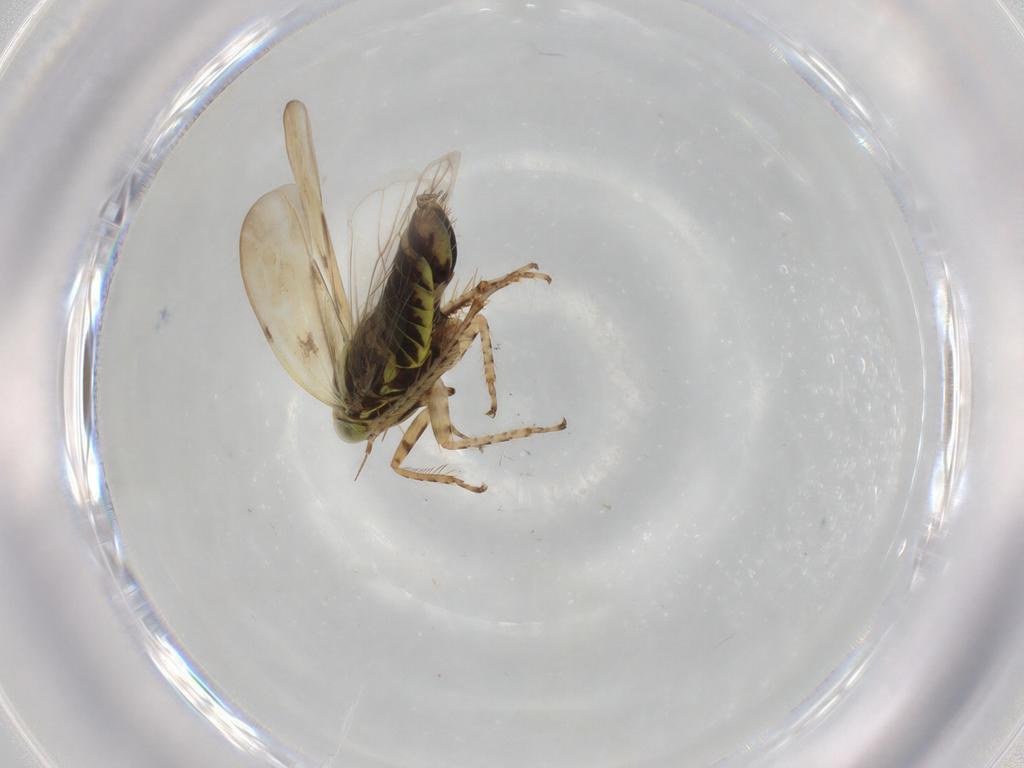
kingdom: Animalia
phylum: Arthropoda
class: Insecta
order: Hemiptera
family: Cicadellidae
